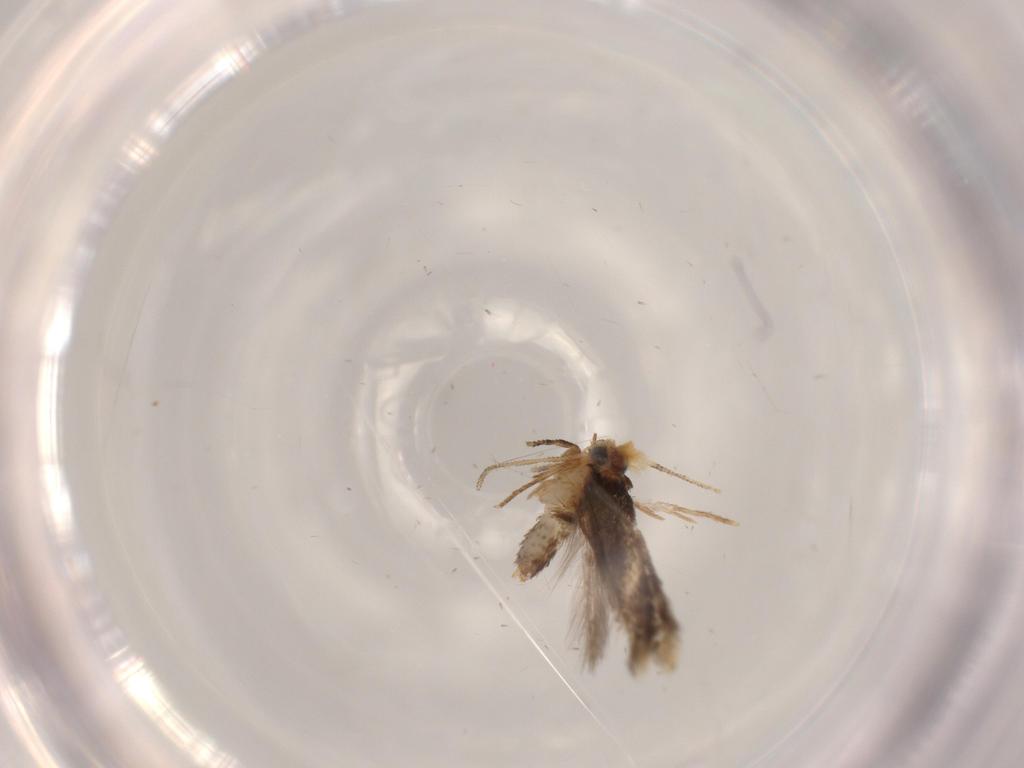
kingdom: Animalia
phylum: Arthropoda
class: Insecta
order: Lepidoptera
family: Nepticulidae
